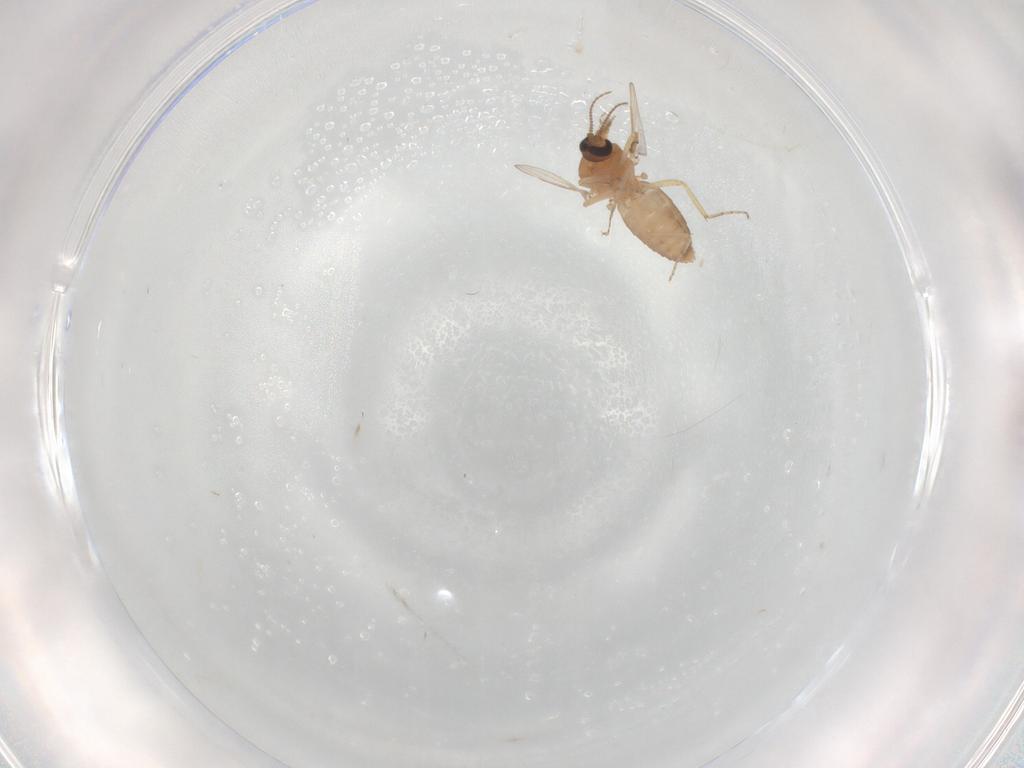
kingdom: Animalia
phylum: Arthropoda
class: Insecta
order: Diptera
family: Ceratopogonidae
